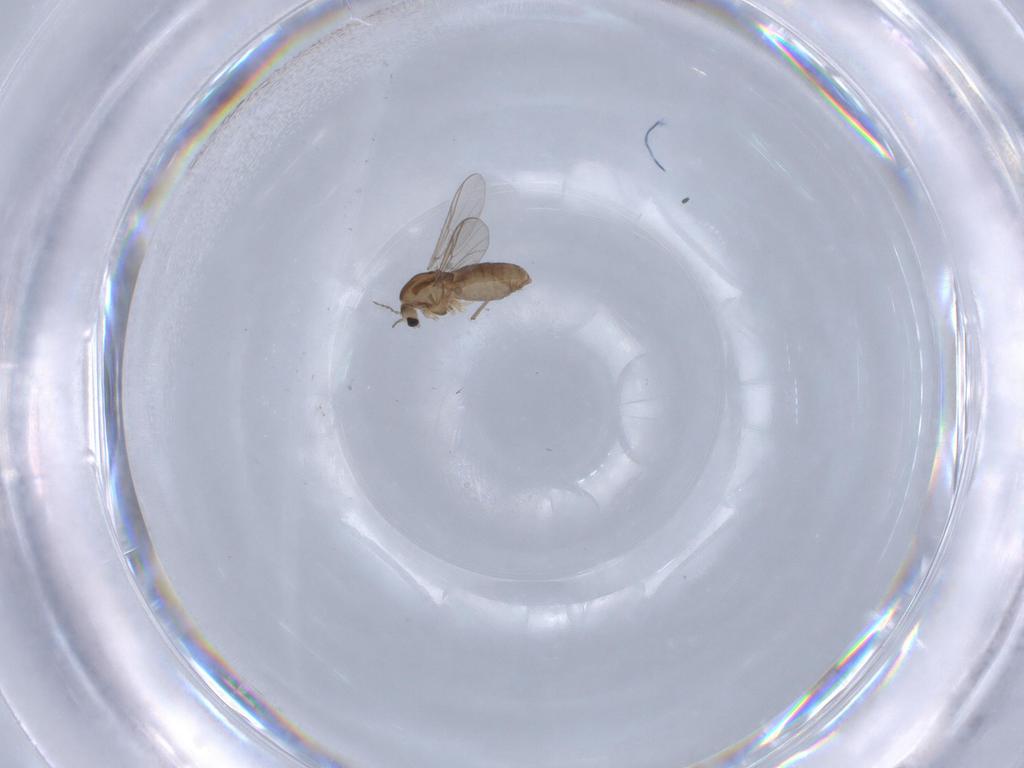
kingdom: Animalia
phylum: Arthropoda
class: Insecta
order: Diptera
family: Chironomidae
